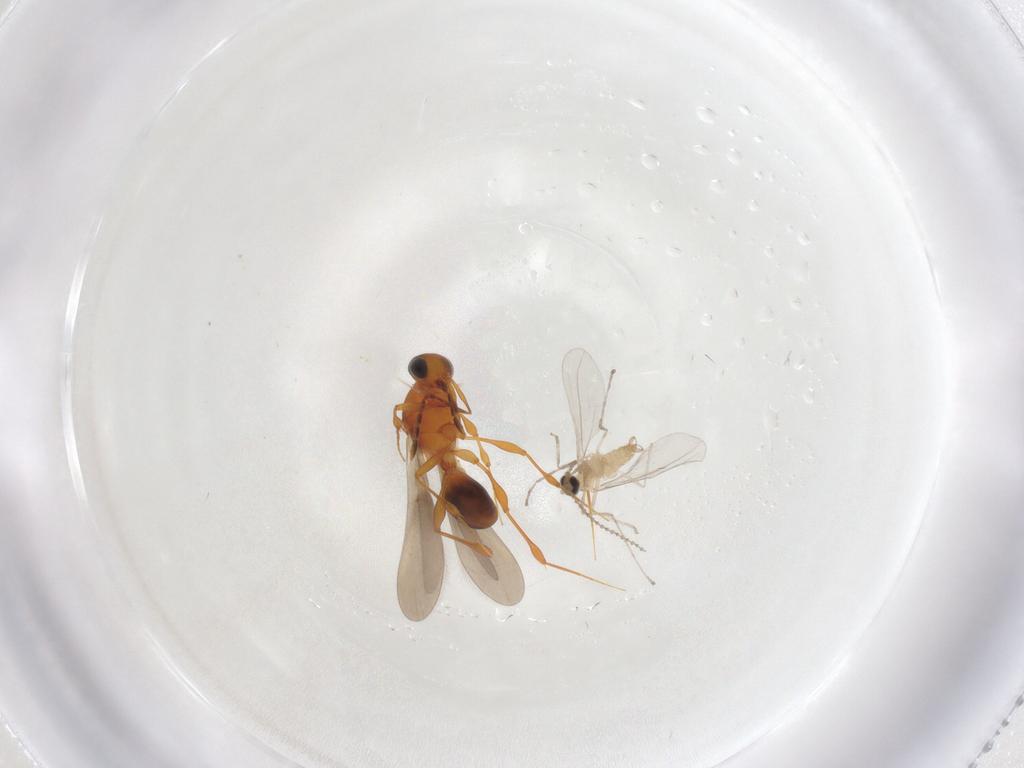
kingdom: Animalia
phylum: Arthropoda
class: Insecta
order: Hymenoptera
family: Platygastridae
